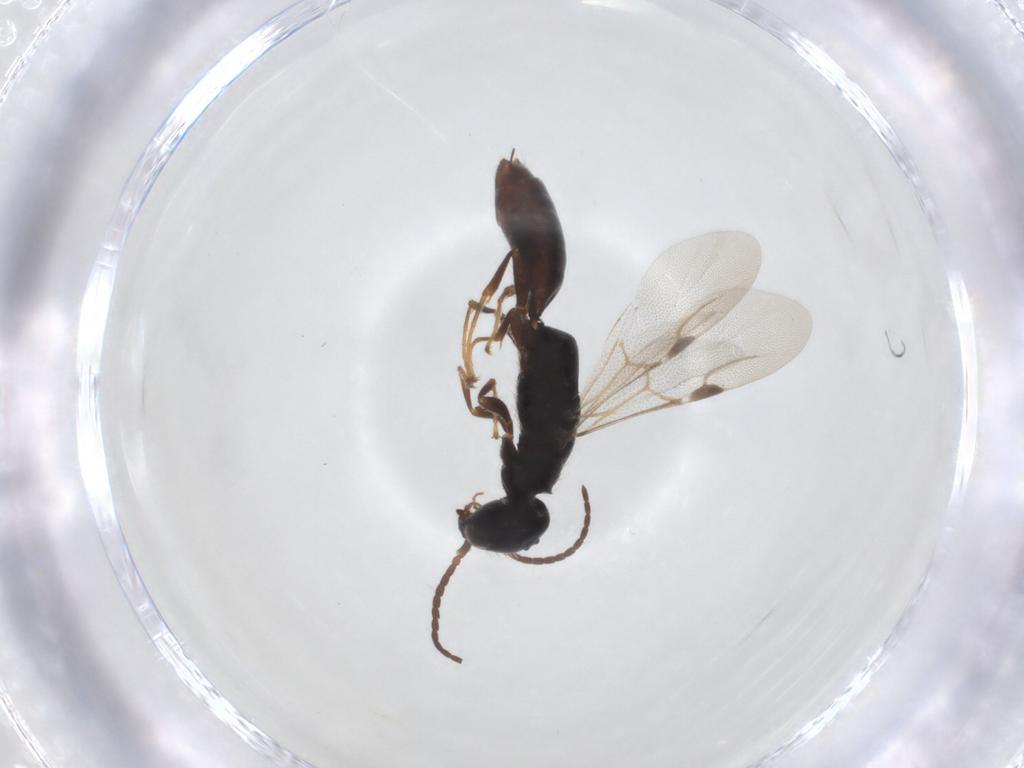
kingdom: Animalia
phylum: Arthropoda
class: Insecta
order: Hymenoptera
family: Bethylidae
